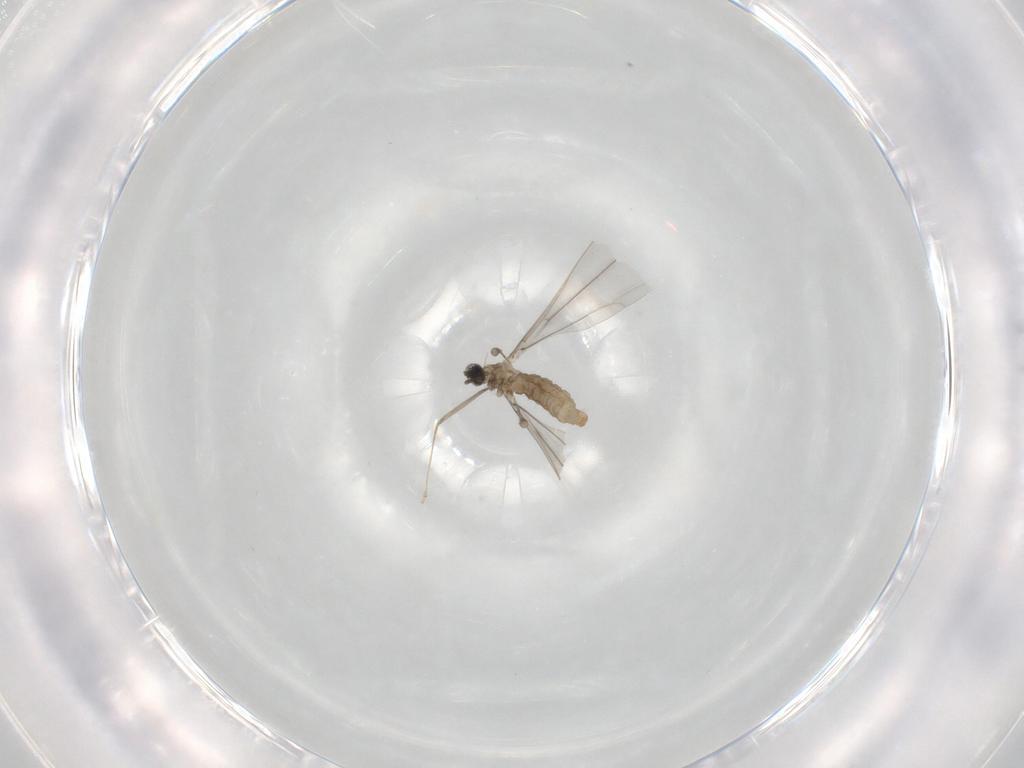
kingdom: Animalia
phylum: Arthropoda
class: Insecta
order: Diptera
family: Cecidomyiidae
